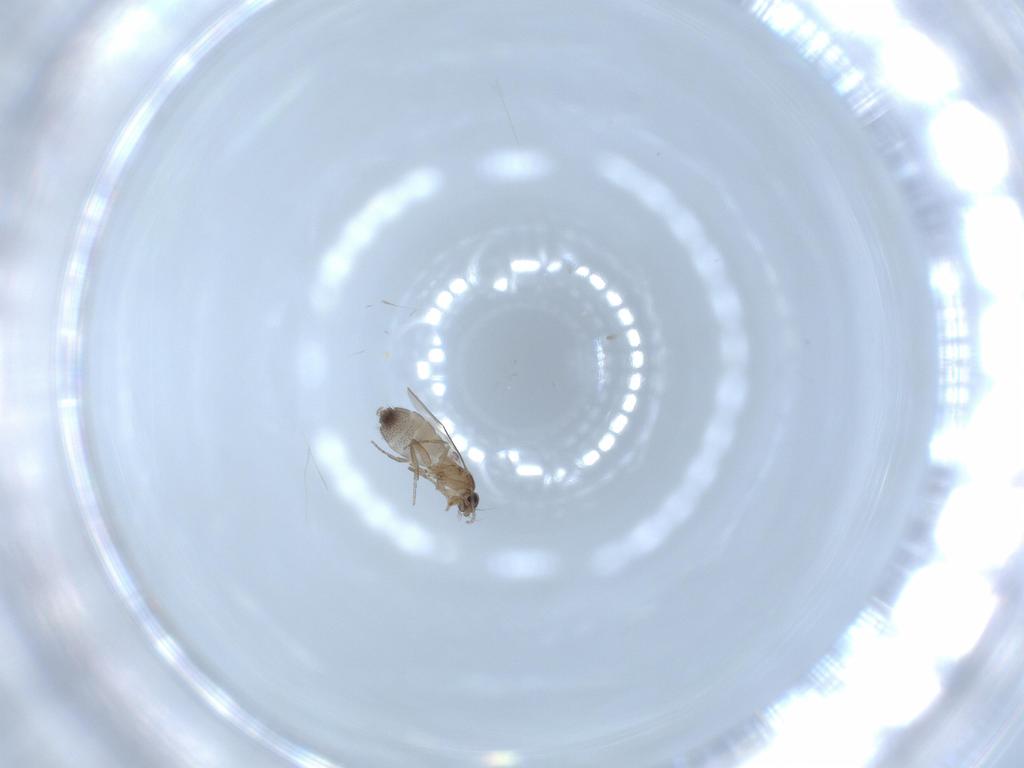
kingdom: Animalia
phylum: Arthropoda
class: Insecta
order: Diptera
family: Phoridae
